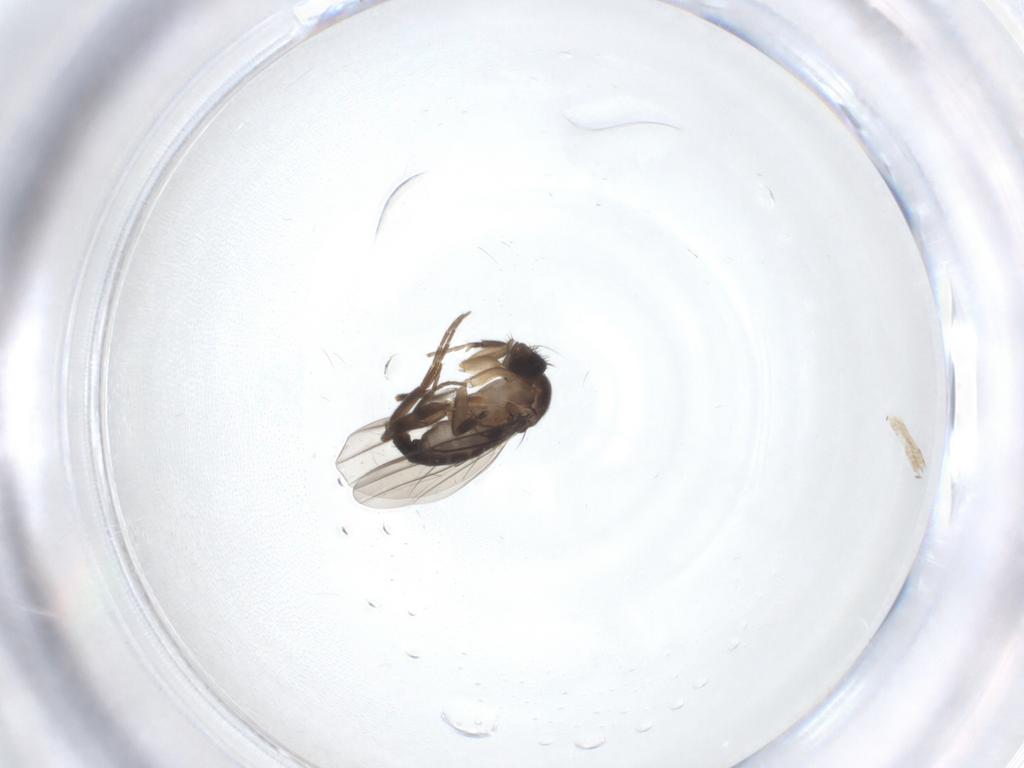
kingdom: Animalia
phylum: Arthropoda
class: Insecta
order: Diptera
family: Phoridae
